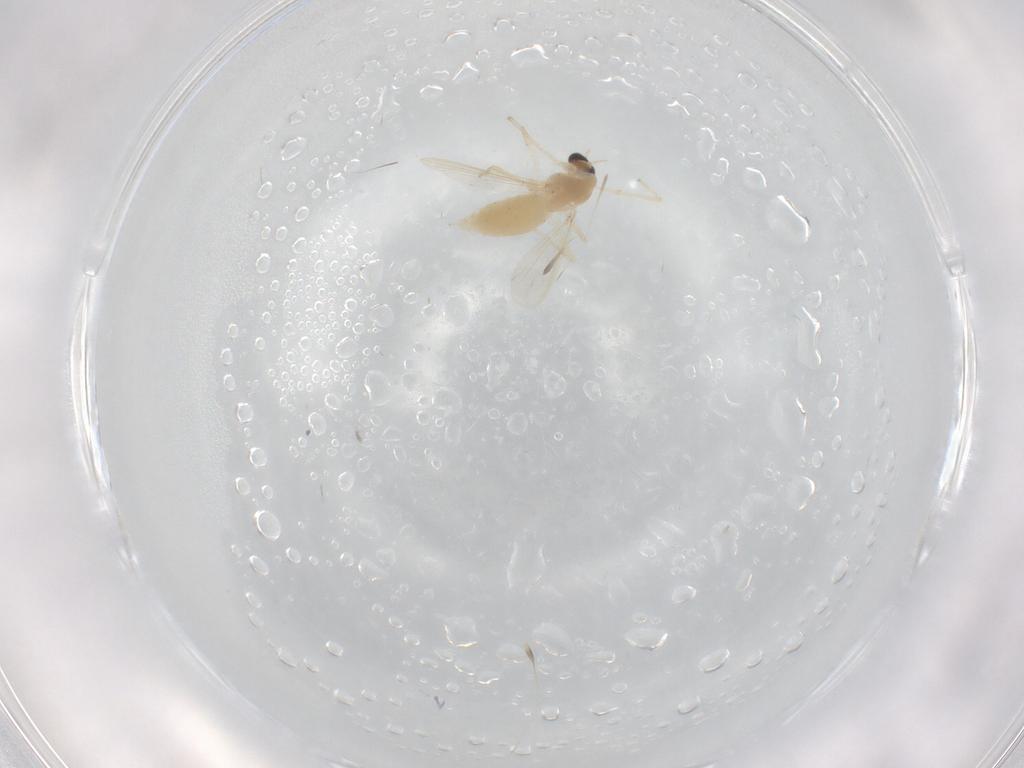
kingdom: Animalia
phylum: Arthropoda
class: Insecta
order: Diptera
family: Chironomidae
